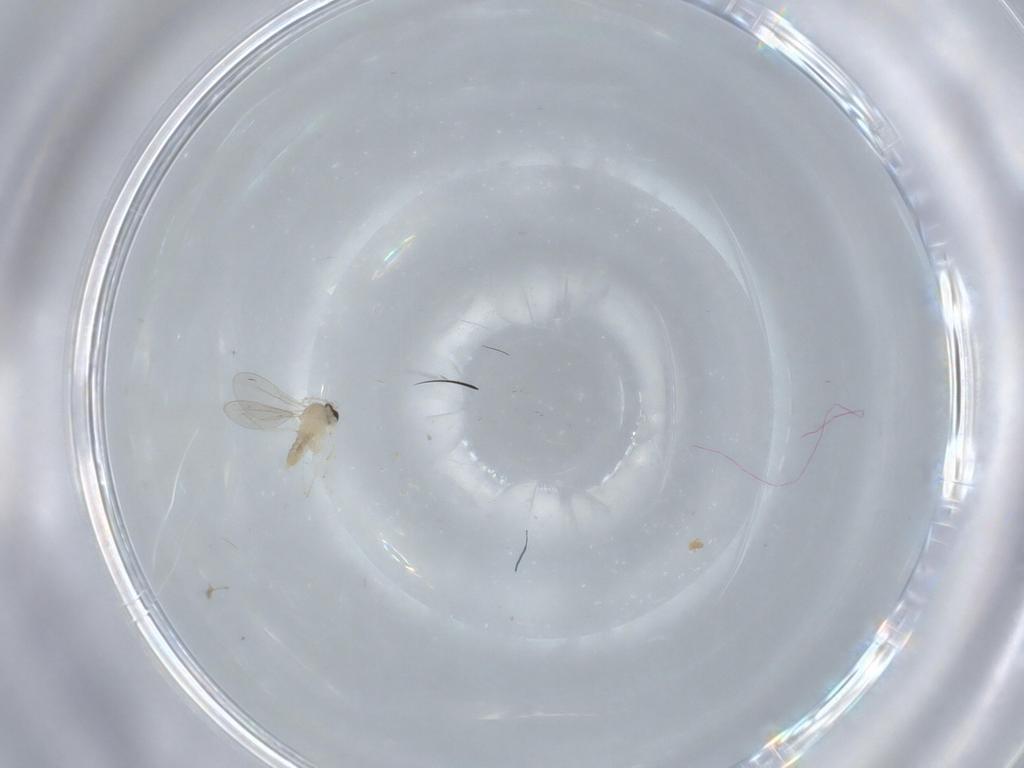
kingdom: Animalia
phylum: Arthropoda
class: Insecta
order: Diptera
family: Cecidomyiidae
